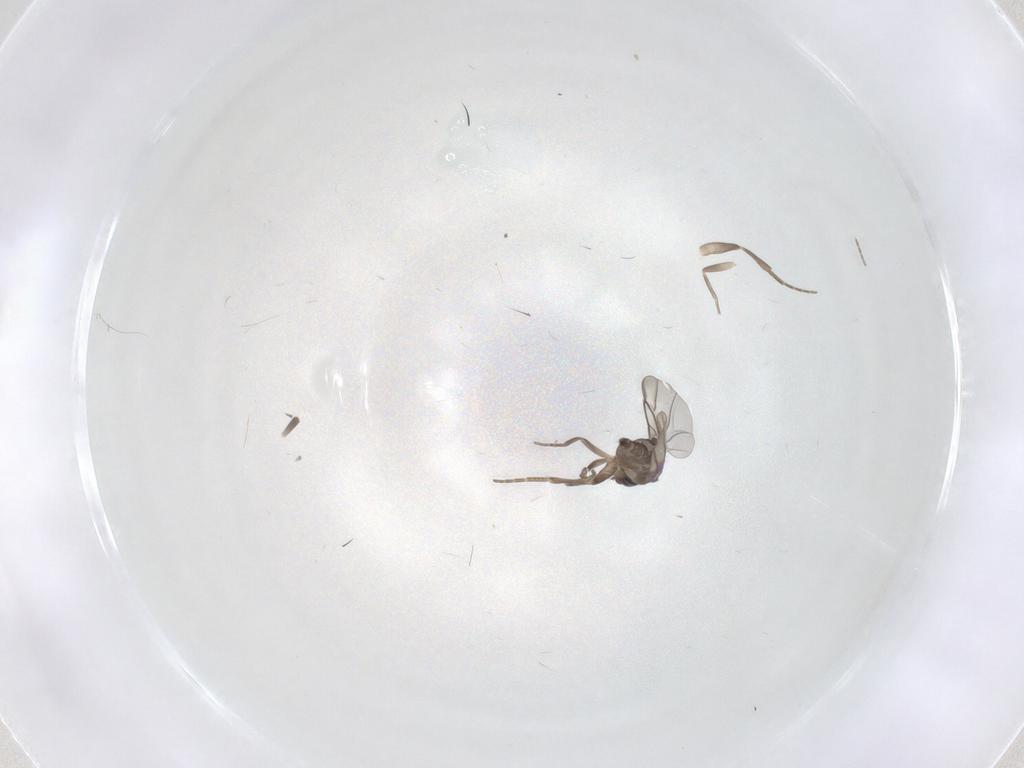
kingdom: Animalia
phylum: Arthropoda
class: Insecta
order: Diptera
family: Phoridae
